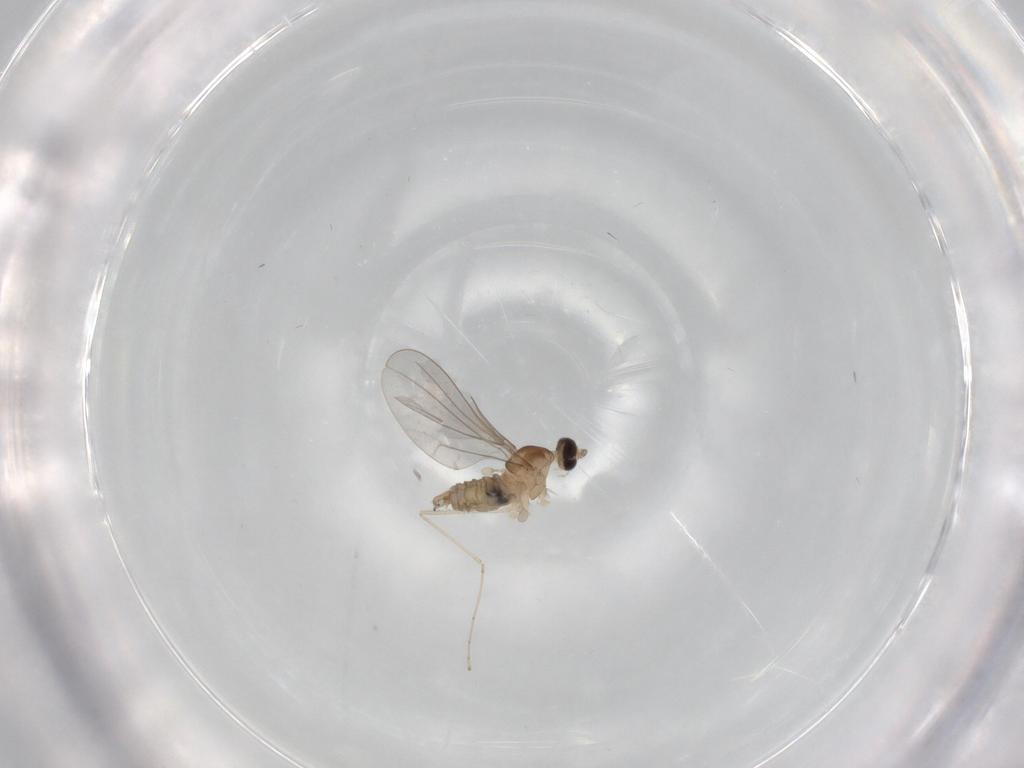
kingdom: Animalia
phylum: Arthropoda
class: Insecta
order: Diptera
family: Cecidomyiidae
